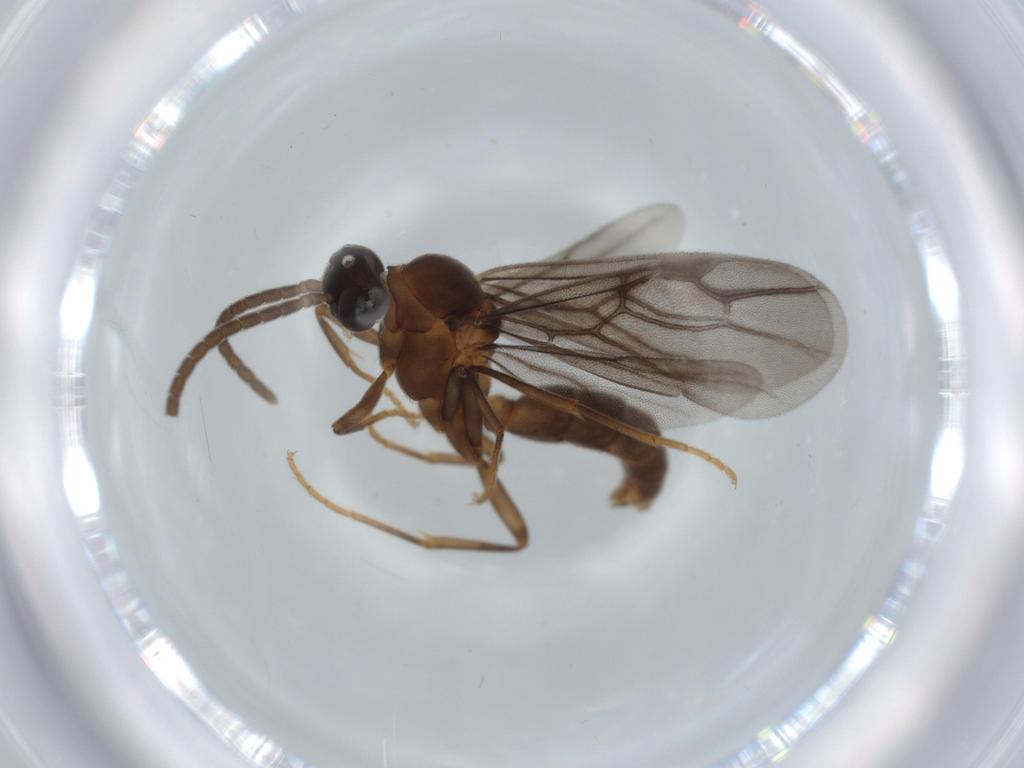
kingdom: Animalia
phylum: Arthropoda
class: Insecta
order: Hymenoptera
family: Formicidae
